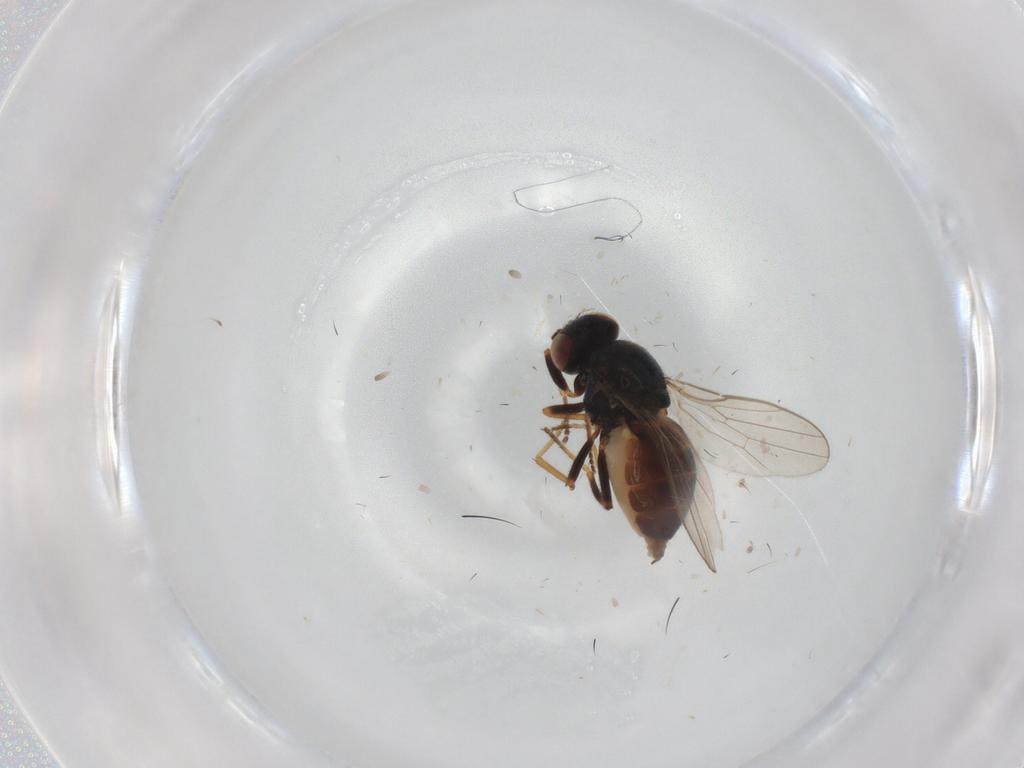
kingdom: Animalia
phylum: Arthropoda
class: Insecta
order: Diptera
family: Chloropidae
